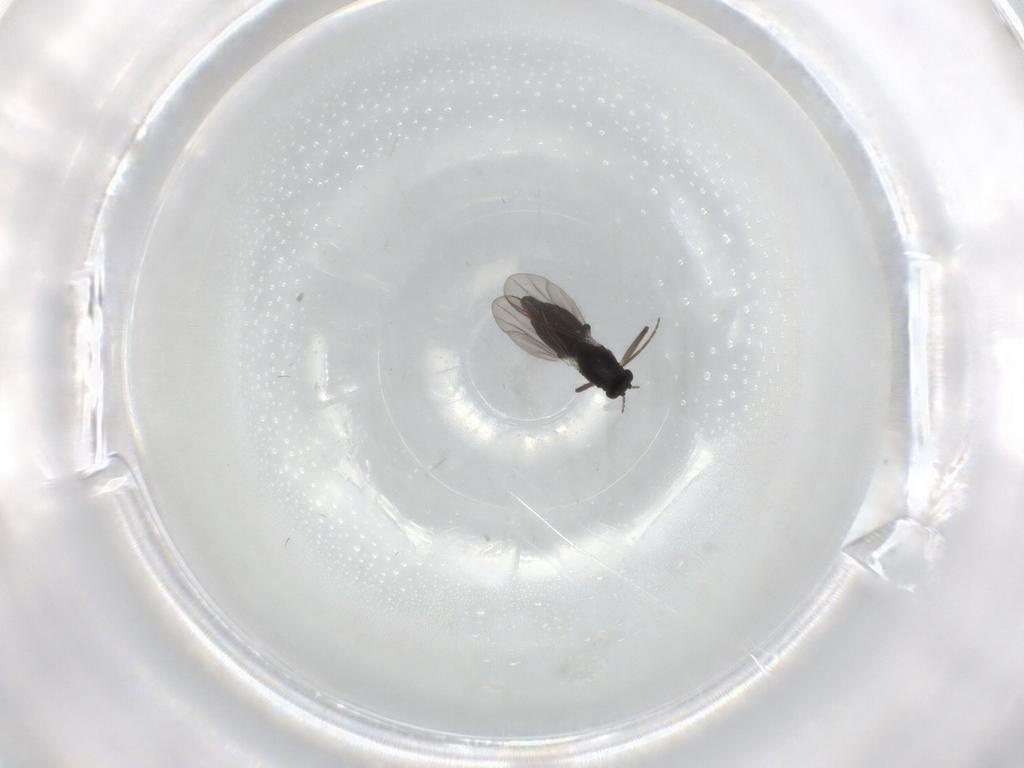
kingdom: Animalia
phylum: Arthropoda
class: Insecta
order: Diptera
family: Chironomidae
